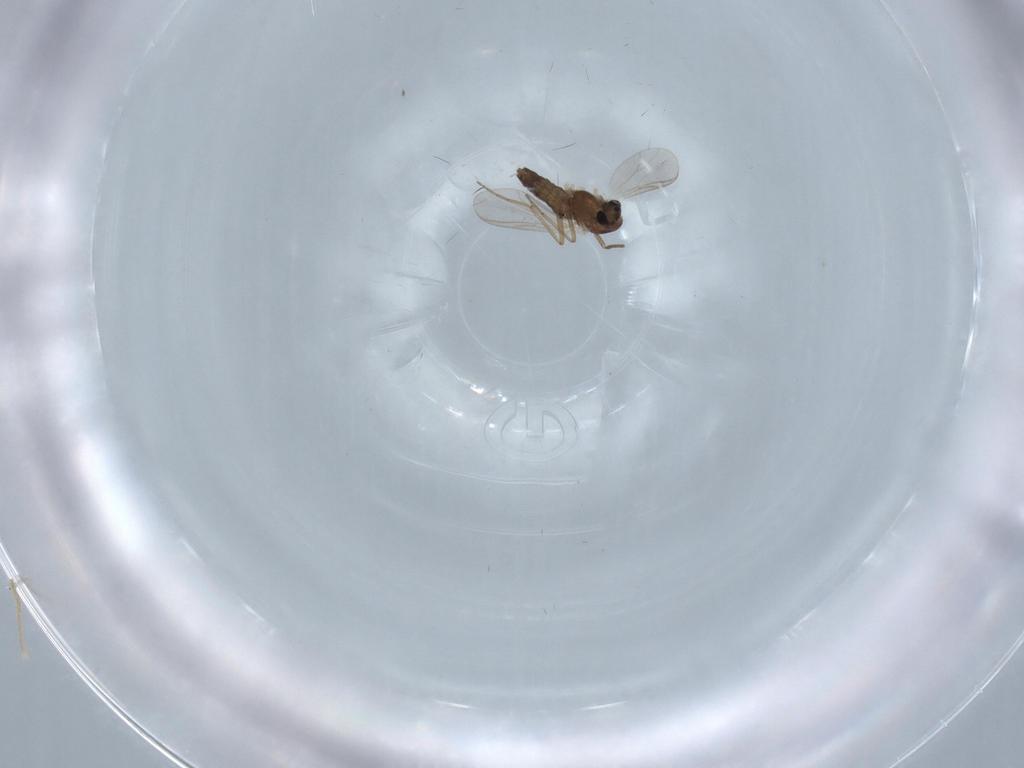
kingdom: Animalia
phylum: Arthropoda
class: Insecta
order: Diptera
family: Chironomidae
